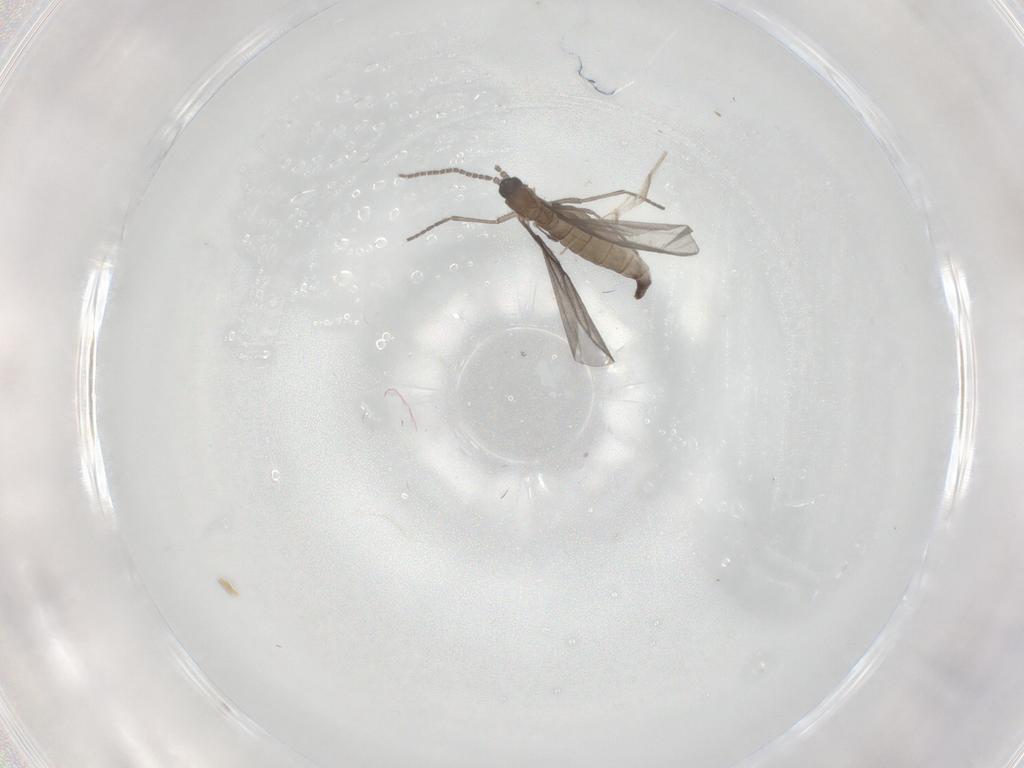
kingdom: Animalia
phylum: Arthropoda
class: Insecta
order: Diptera
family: Sciaridae
